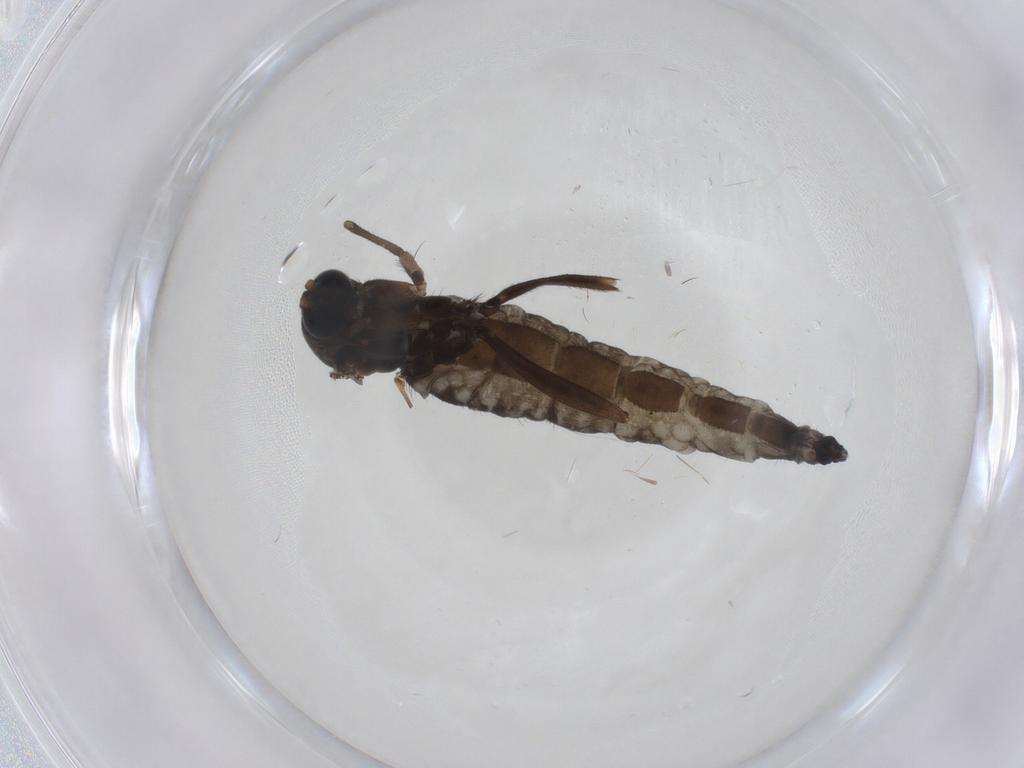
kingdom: Animalia
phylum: Arthropoda
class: Insecta
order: Diptera
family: Sciaridae
